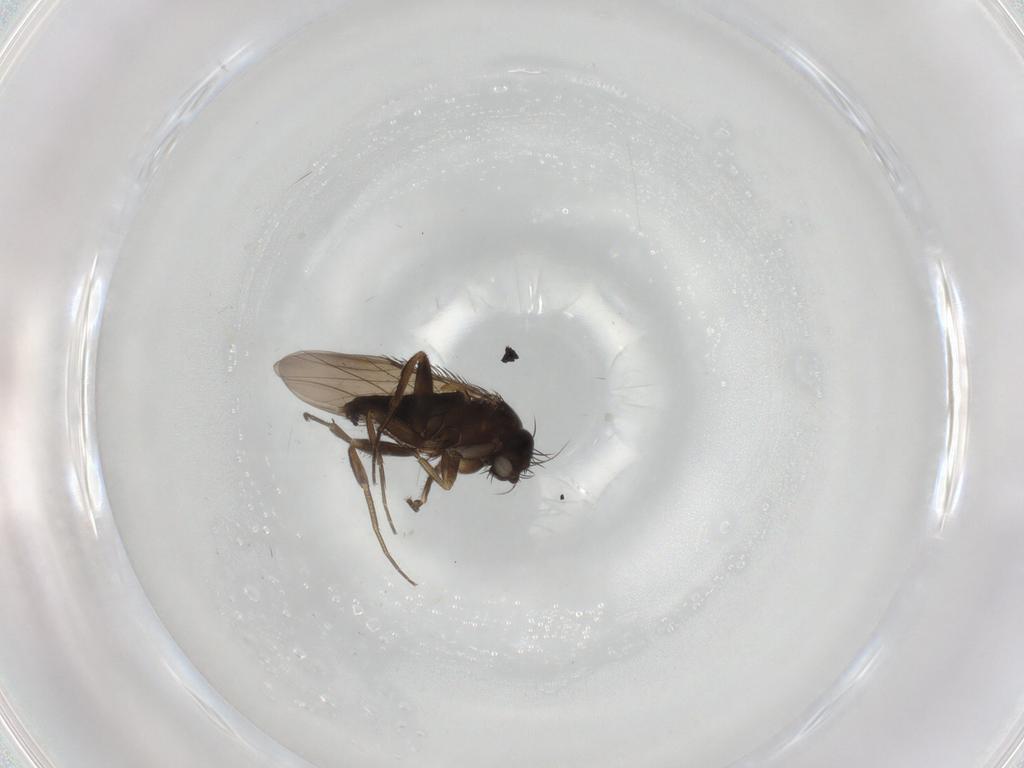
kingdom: Animalia
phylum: Arthropoda
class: Insecta
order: Diptera
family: Phoridae
